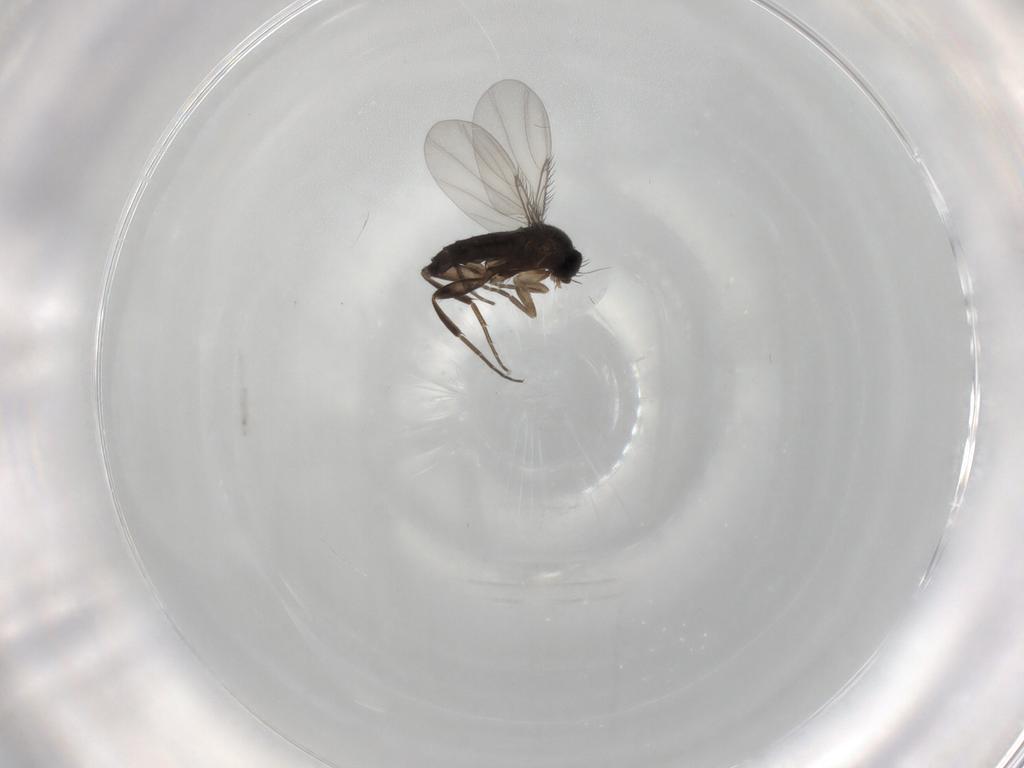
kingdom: Animalia
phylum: Arthropoda
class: Insecta
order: Diptera
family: Phoridae
